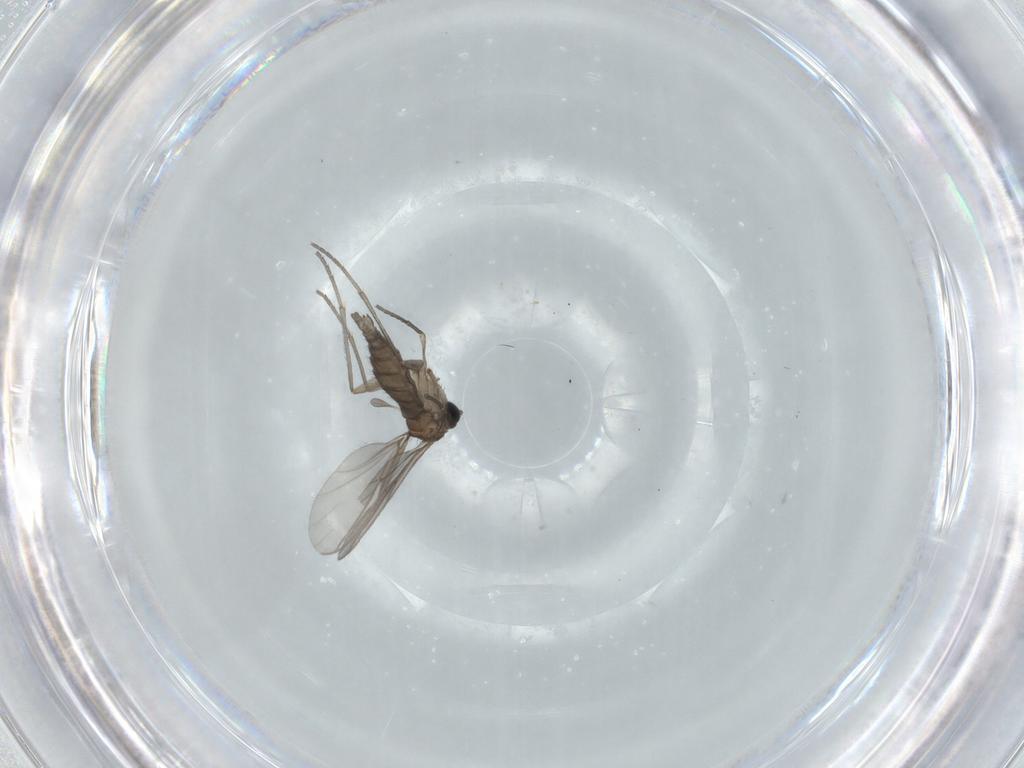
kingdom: Animalia
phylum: Arthropoda
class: Insecta
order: Diptera
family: Sciaridae
